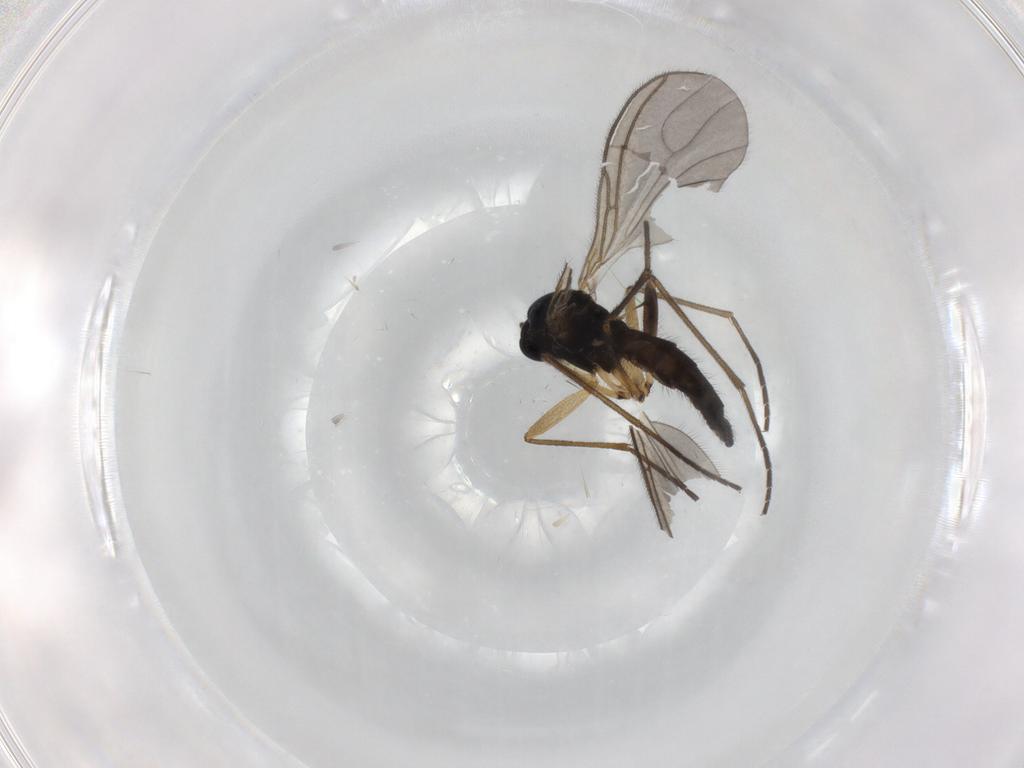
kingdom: Animalia
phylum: Arthropoda
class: Insecta
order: Diptera
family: Sciaridae
